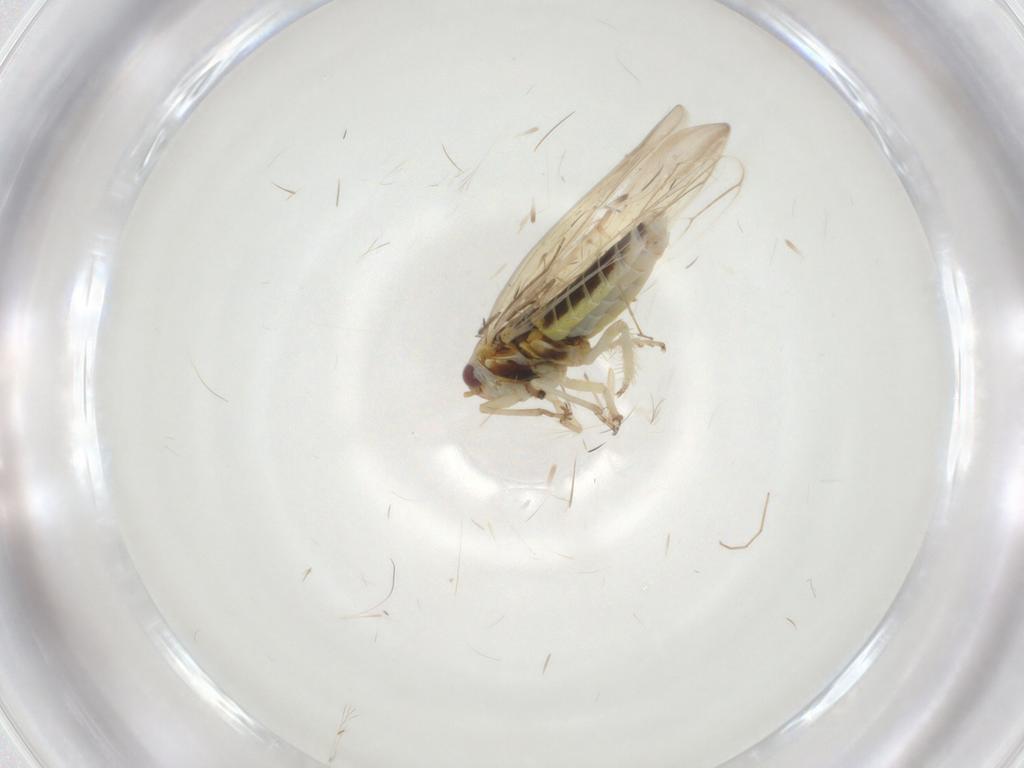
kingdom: Animalia
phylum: Arthropoda
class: Insecta
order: Hemiptera
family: Cicadellidae
